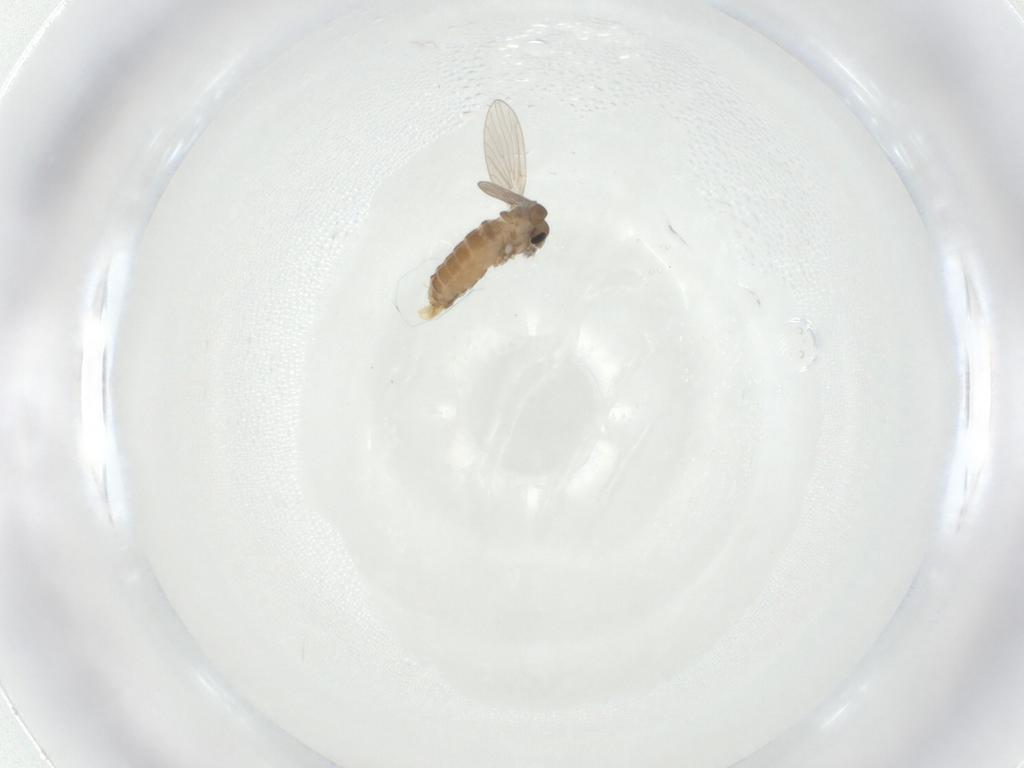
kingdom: Animalia
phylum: Arthropoda
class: Insecta
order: Diptera
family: Psychodidae
